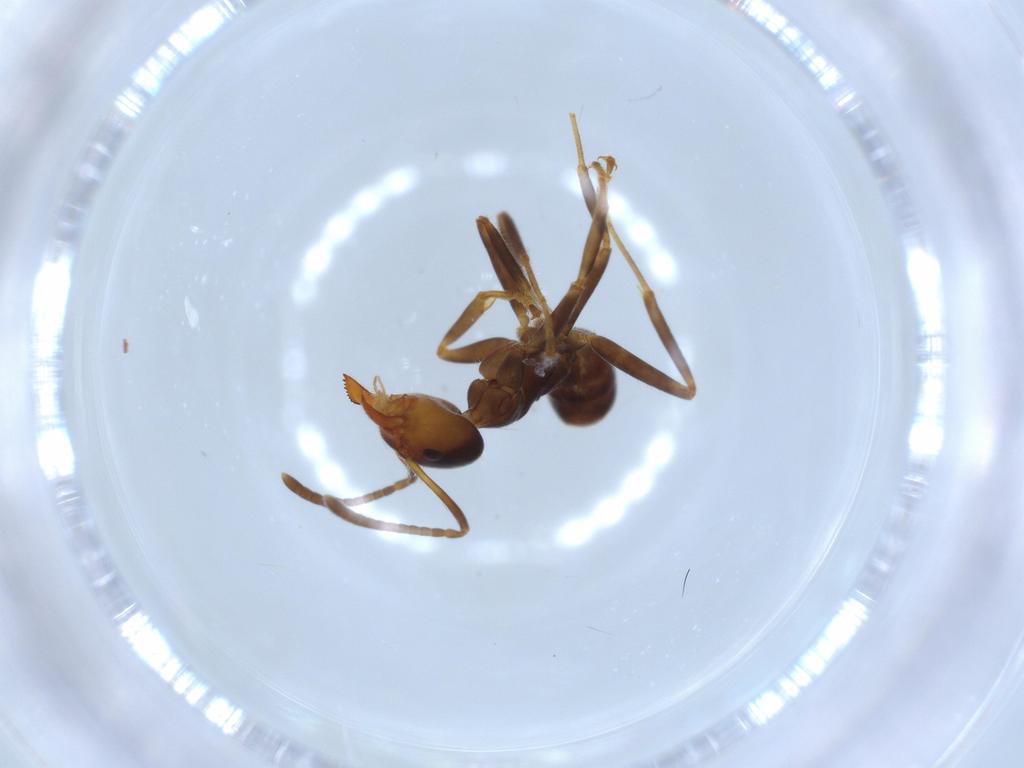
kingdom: Animalia
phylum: Arthropoda
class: Insecta
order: Hymenoptera
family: Formicidae
